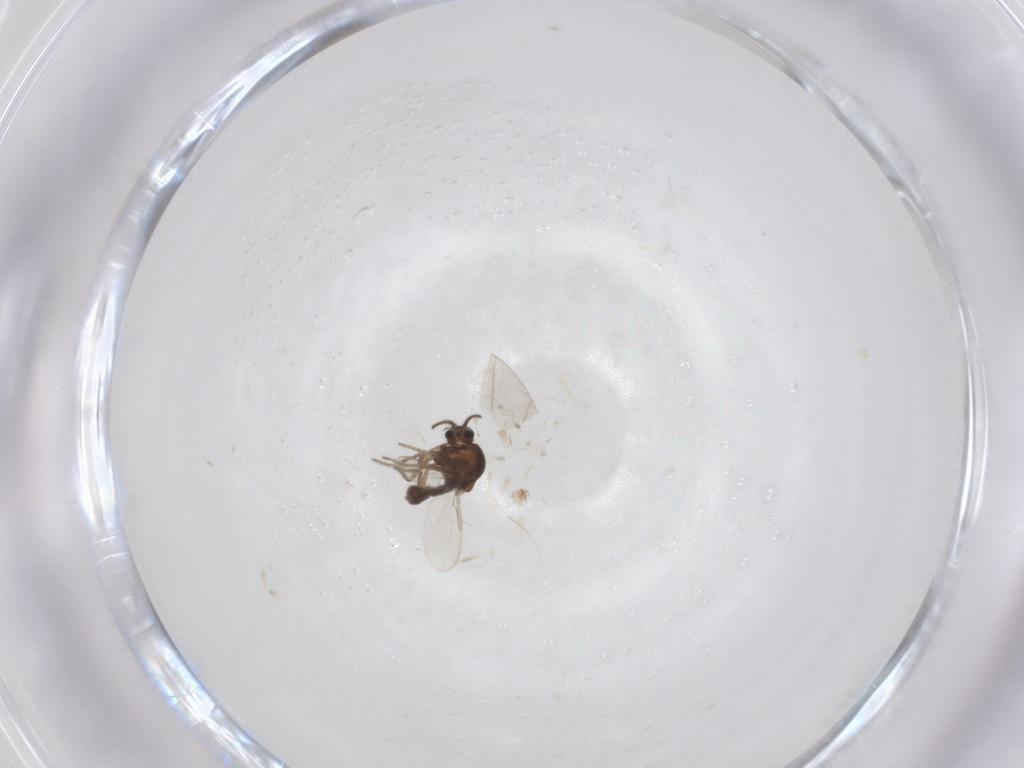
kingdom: Animalia
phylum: Arthropoda
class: Insecta
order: Diptera
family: Ceratopogonidae
